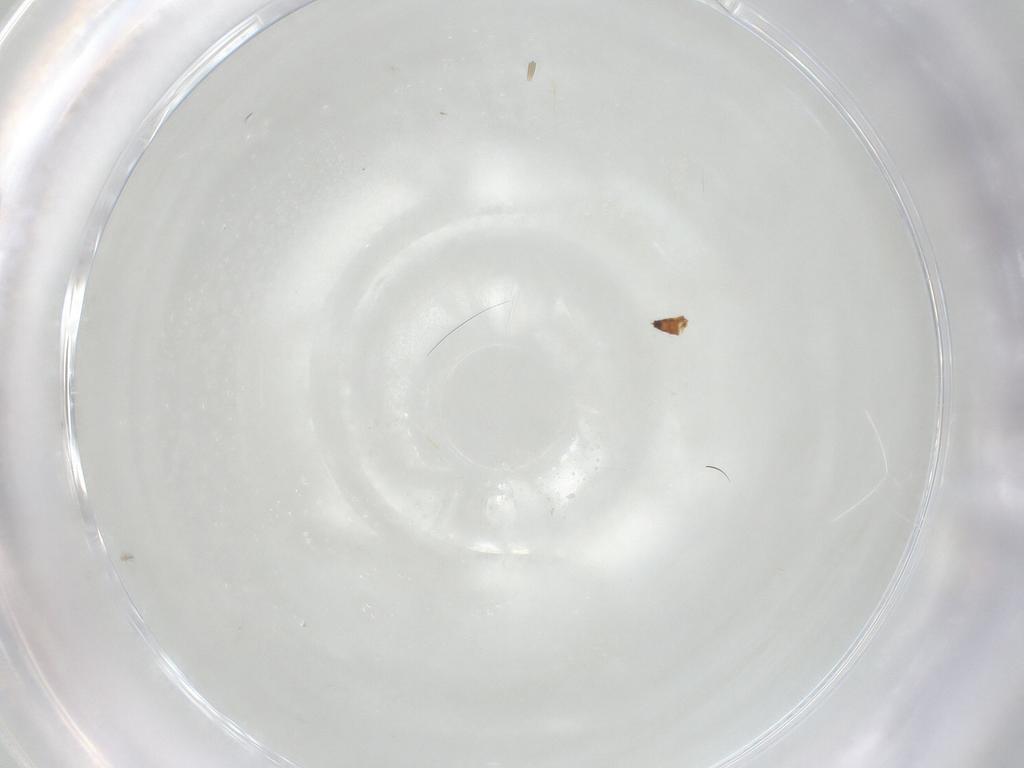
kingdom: Animalia
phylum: Arthropoda
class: Insecta
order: Thysanoptera
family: Thripidae
